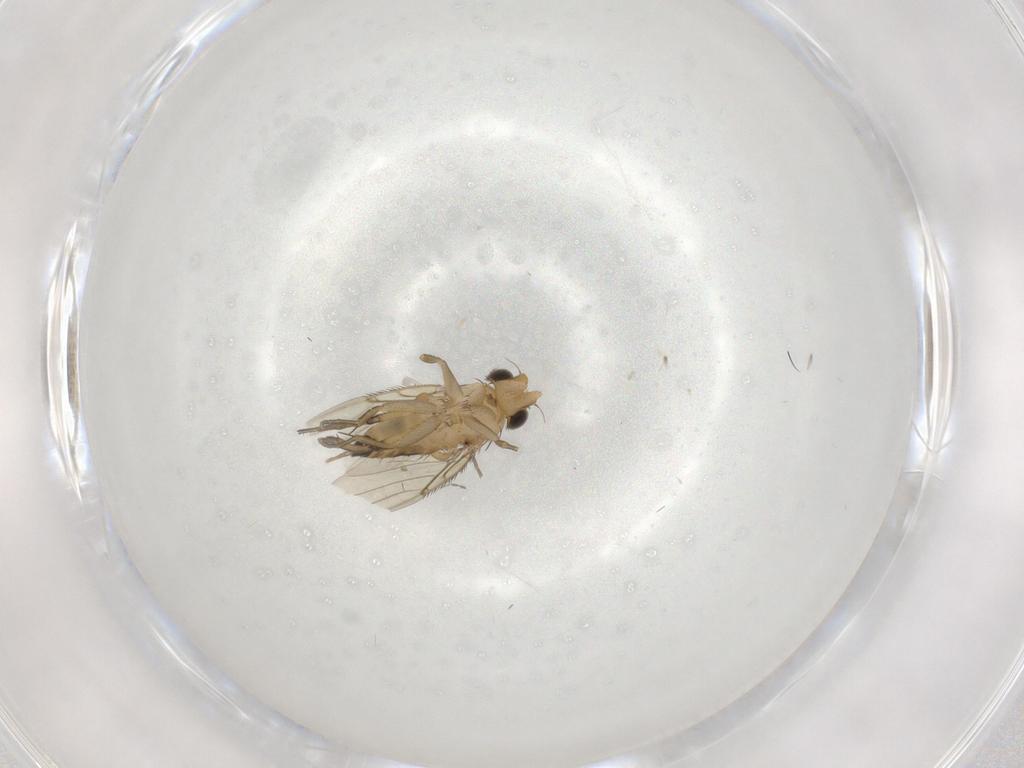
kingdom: Animalia
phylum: Arthropoda
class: Insecta
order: Diptera
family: Phoridae
